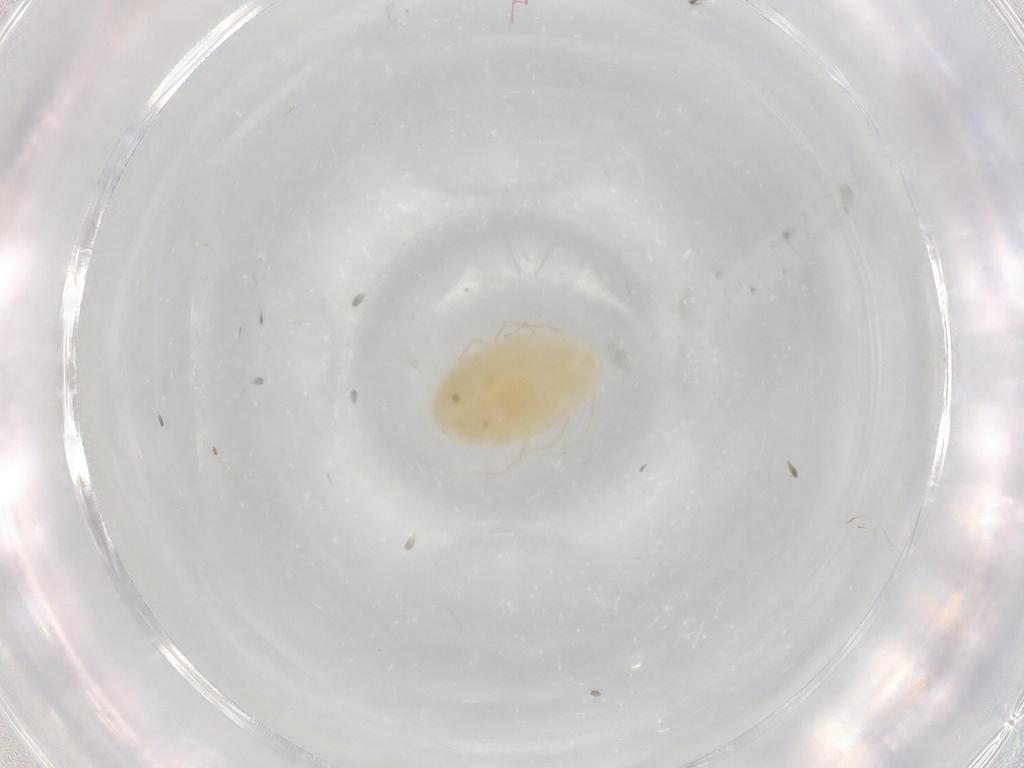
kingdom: Animalia
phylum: Arthropoda
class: Arachnida
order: Trombidiformes
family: Erythraeidae
